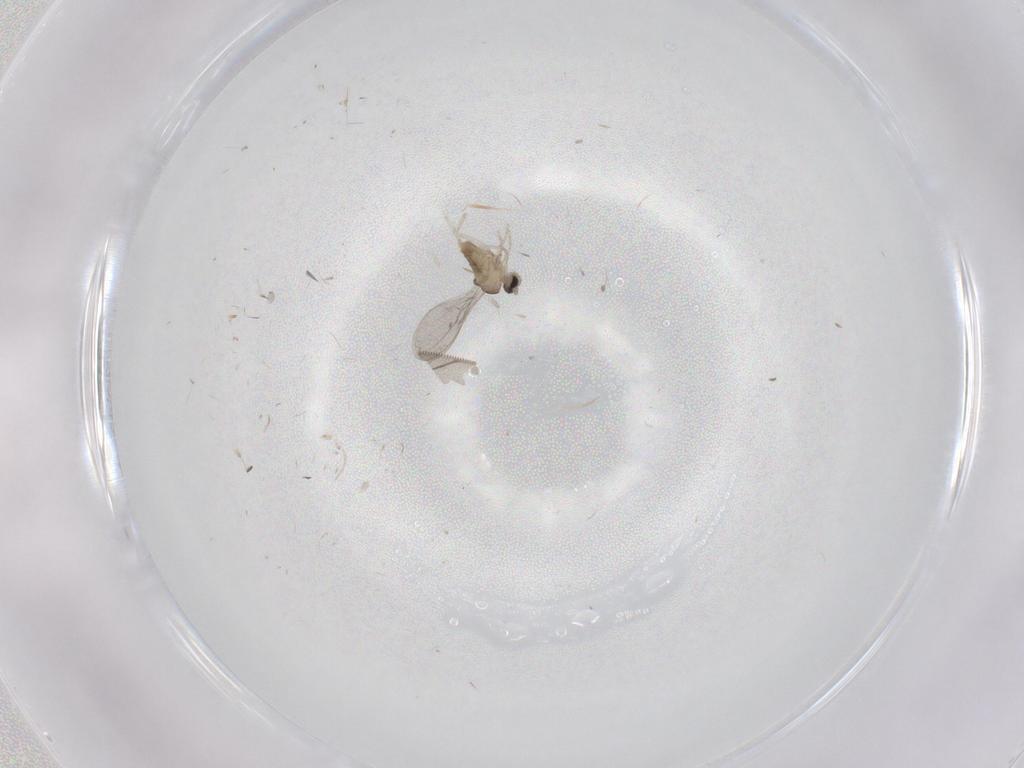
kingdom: Animalia
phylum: Arthropoda
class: Insecta
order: Diptera
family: Cecidomyiidae
